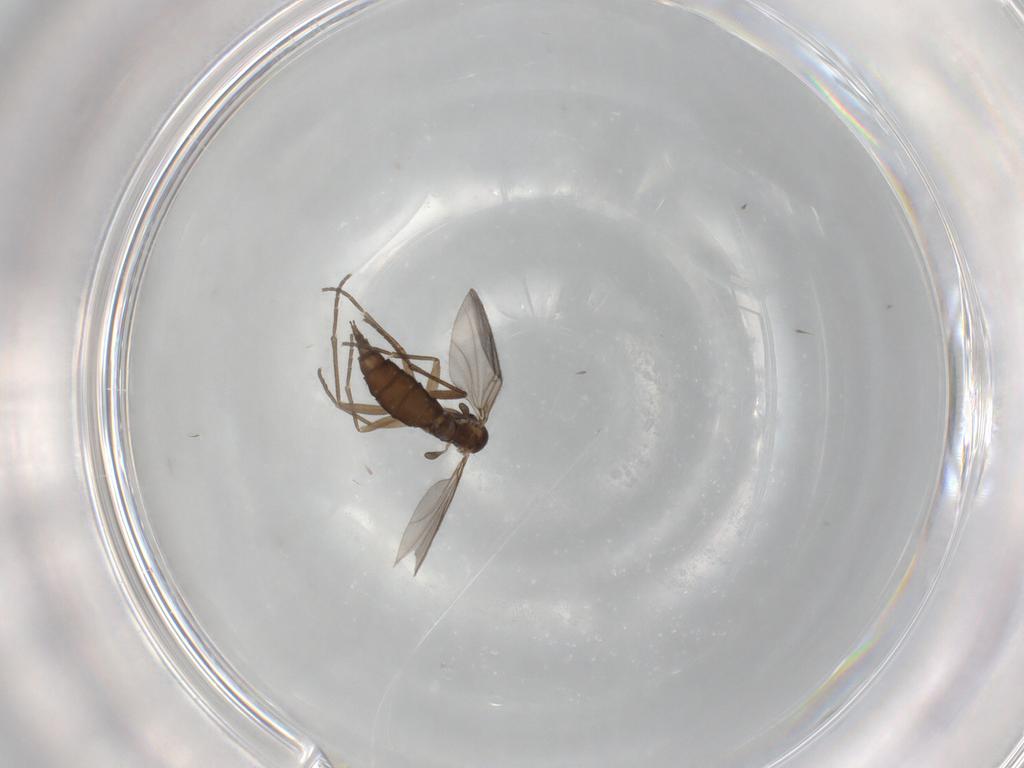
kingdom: Animalia
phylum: Arthropoda
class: Insecta
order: Diptera
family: Sciaridae
